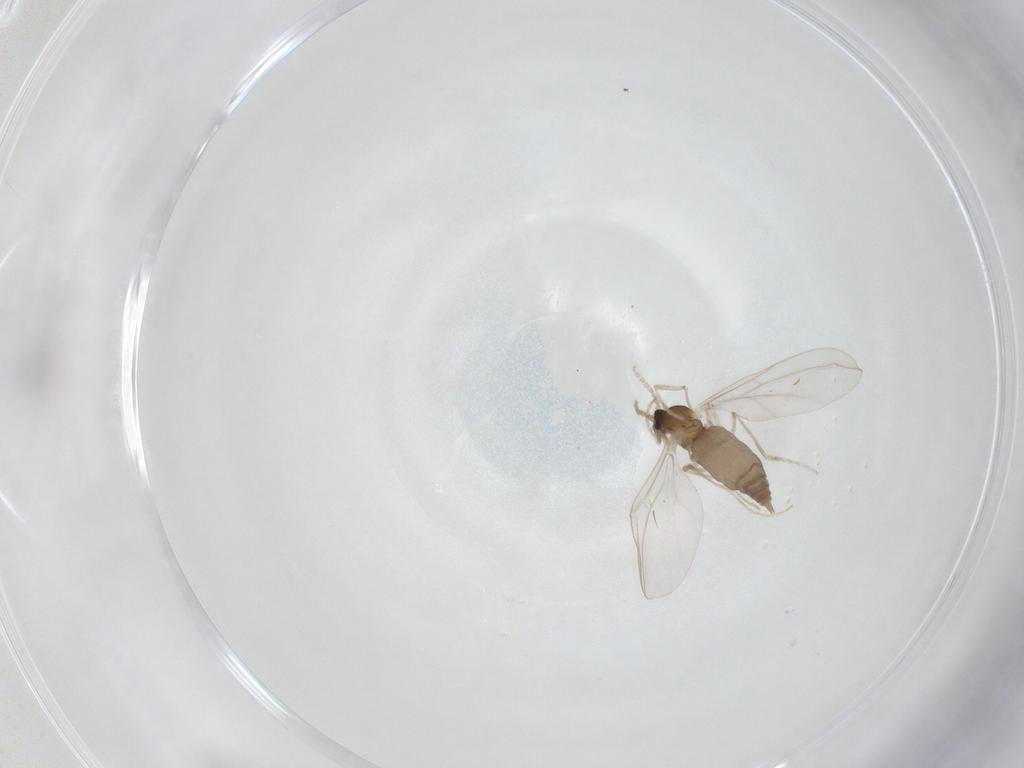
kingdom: Animalia
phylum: Arthropoda
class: Insecta
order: Diptera
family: Cecidomyiidae
